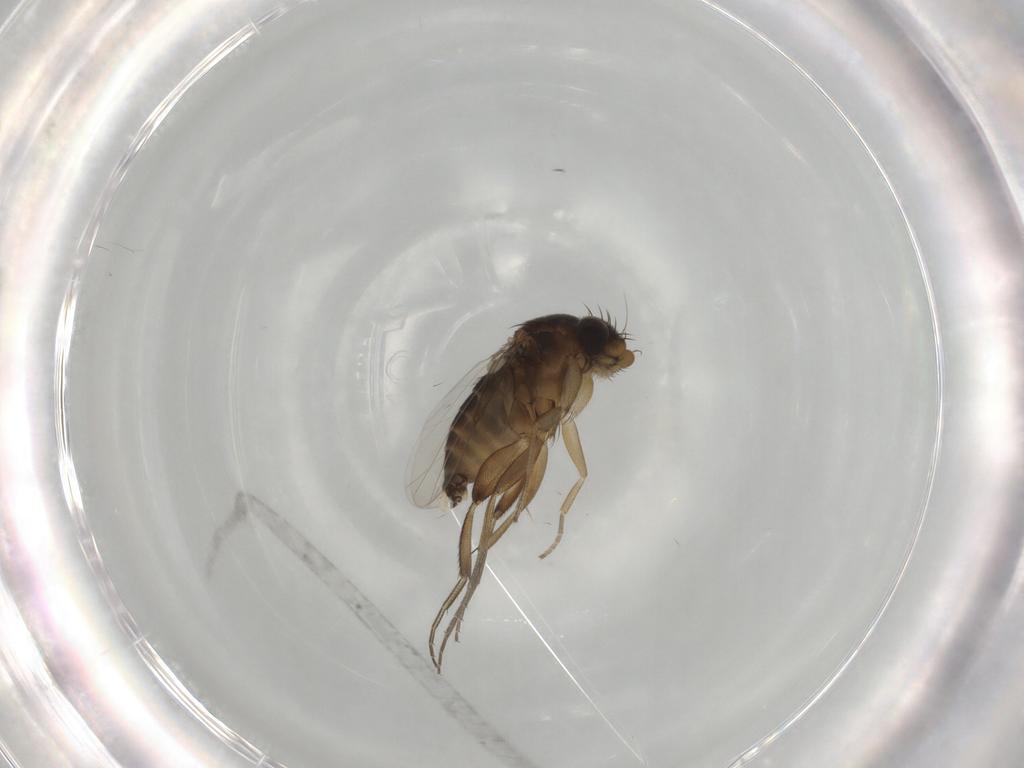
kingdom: Animalia
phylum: Arthropoda
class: Insecta
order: Diptera
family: Phoridae
